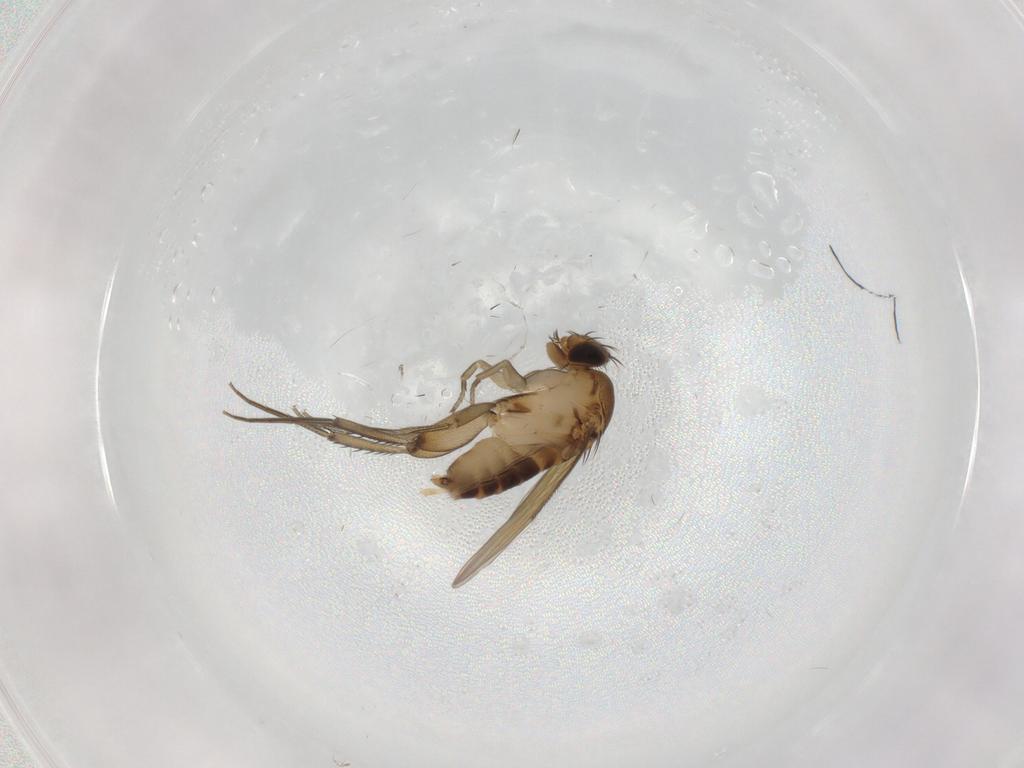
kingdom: Animalia
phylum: Arthropoda
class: Insecta
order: Diptera
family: Phoridae
